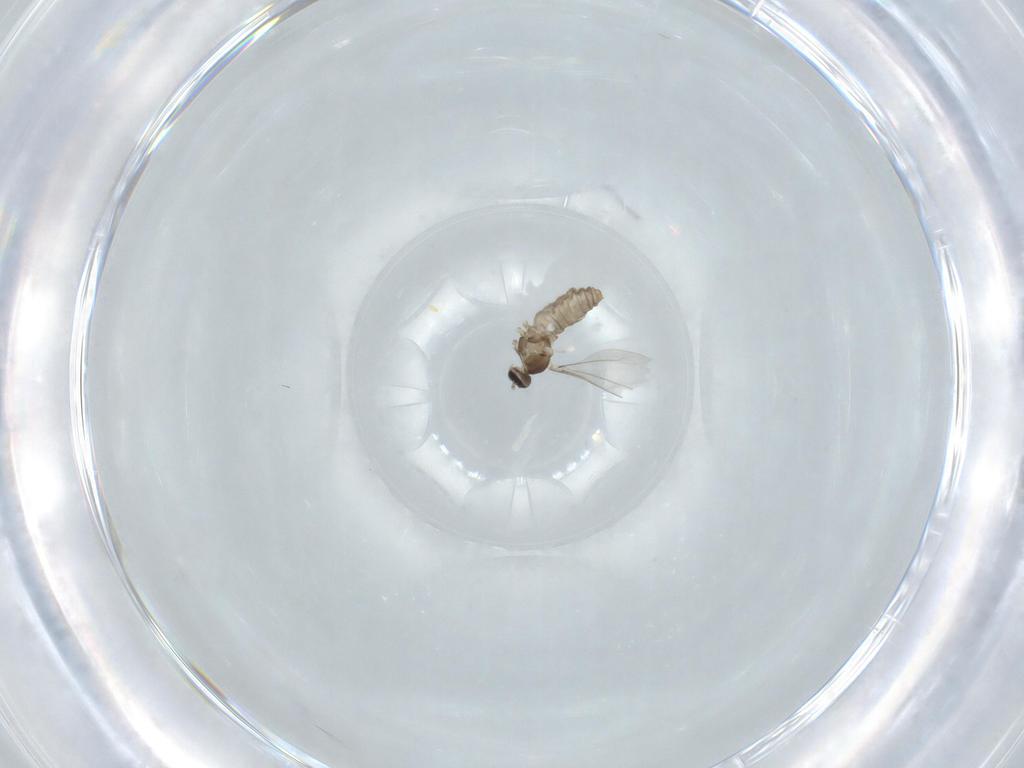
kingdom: Animalia
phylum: Arthropoda
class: Insecta
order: Diptera
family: Cecidomyiidae
